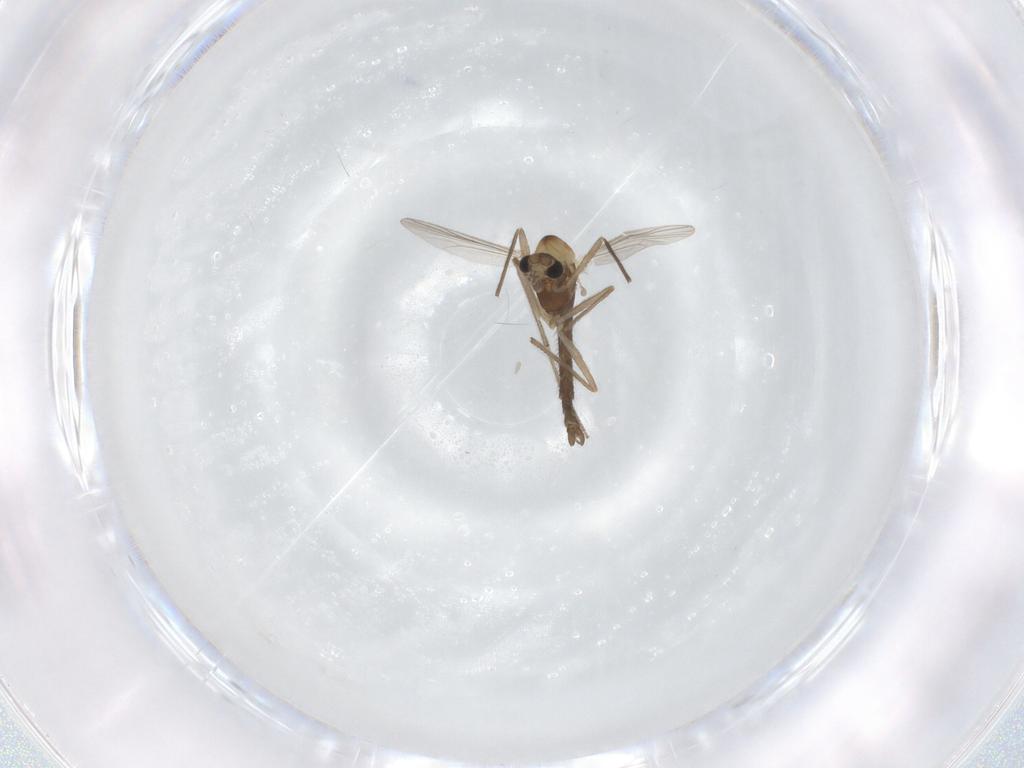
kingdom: Animalia
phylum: Arthropoda
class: Insecta
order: Diptera
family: Chironomidae
